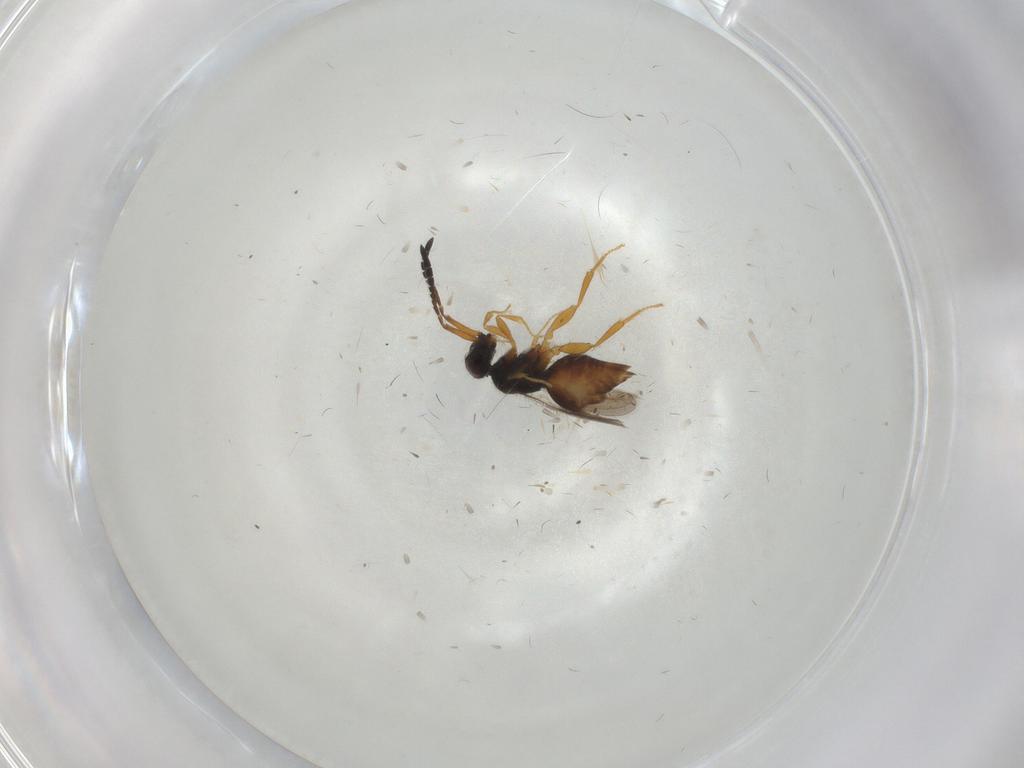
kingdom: Animalia
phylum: Arthropoda
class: Insecta
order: Hymenoptera
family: Ceraphronidae
